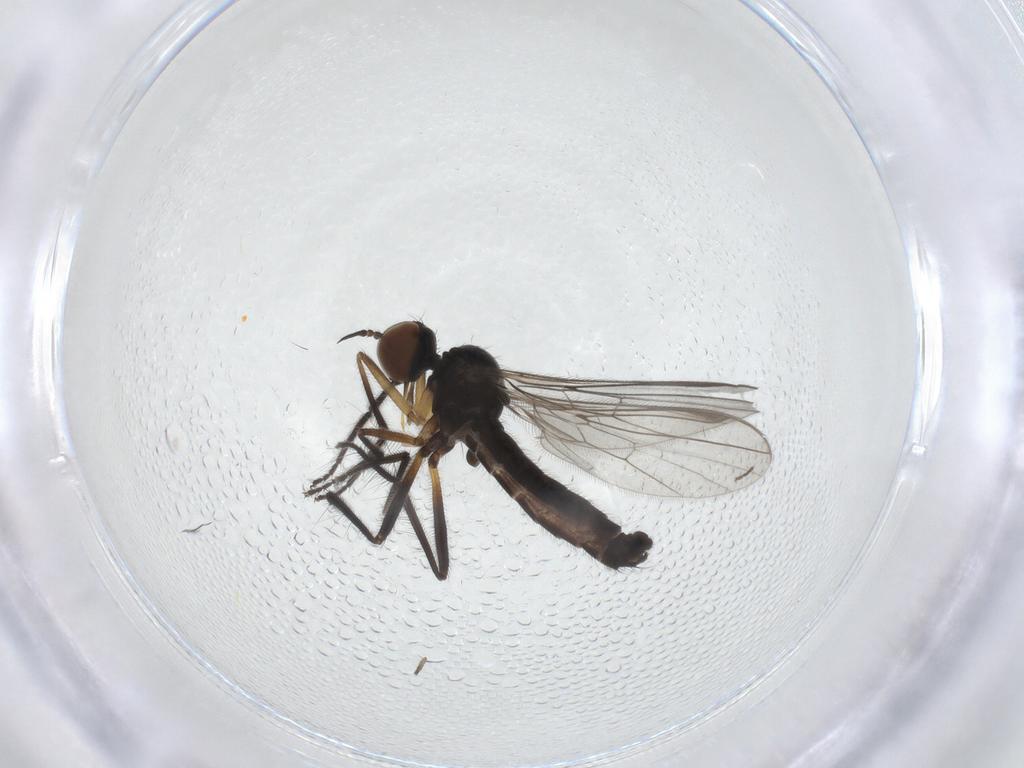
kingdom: Animalia
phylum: Arthropoda
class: Insecta
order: Diptera
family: Empididae
